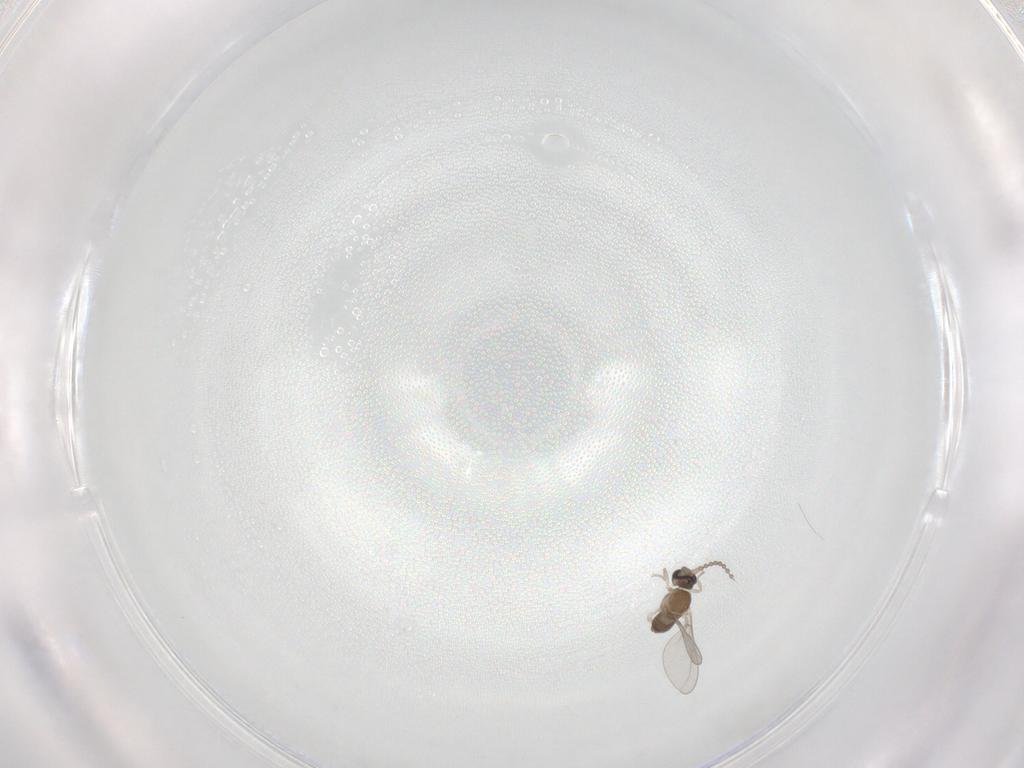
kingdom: Animalia
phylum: Arthropoda
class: Insecta
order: Diptera
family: Cecidomyiidae
